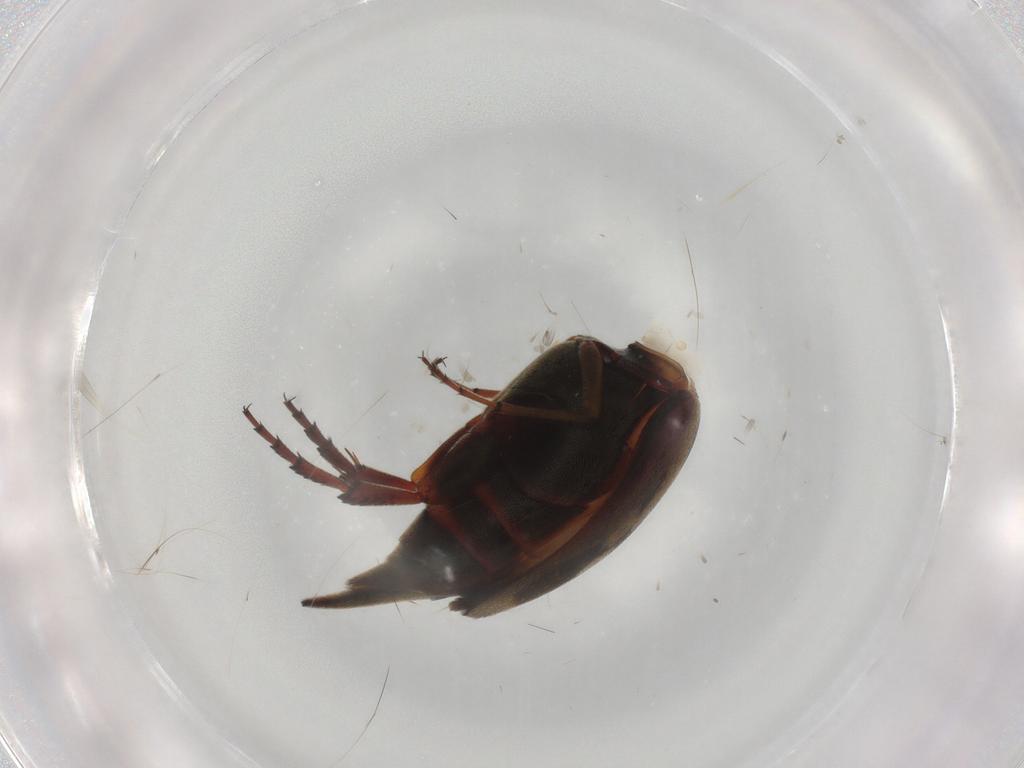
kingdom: Animalia
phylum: Arthropoda
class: Insecta
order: Coleoptera
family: Mordellidae
